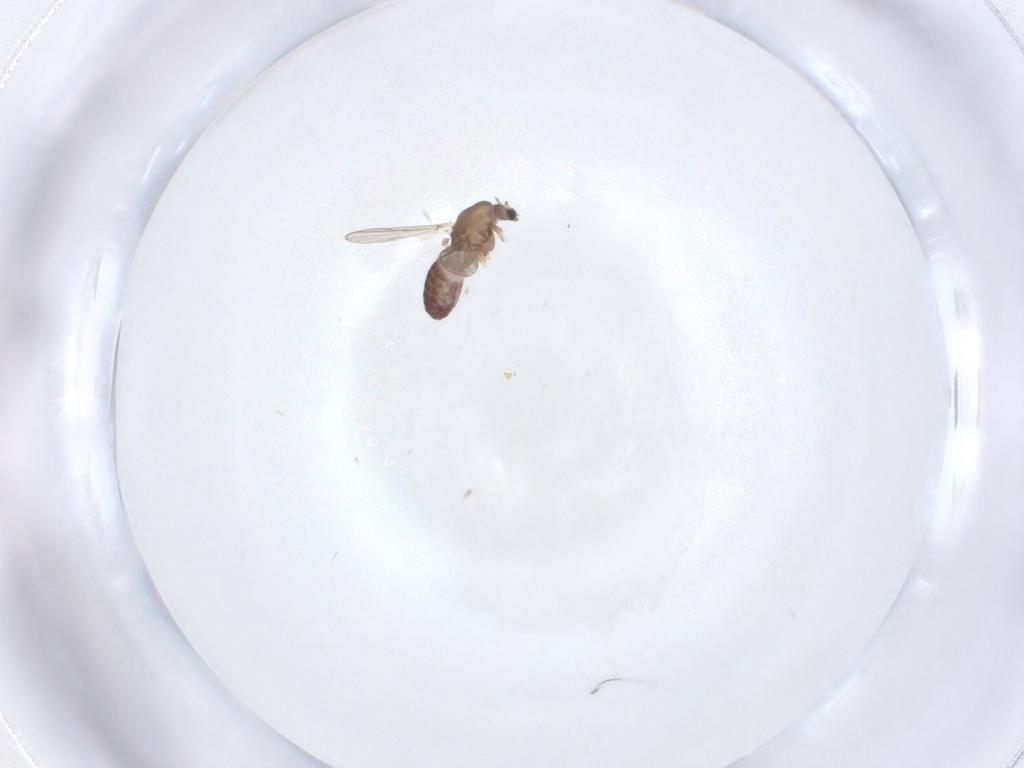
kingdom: Animalia
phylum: Arthropoda
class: Insecta
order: Diptera
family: Chironomidae
